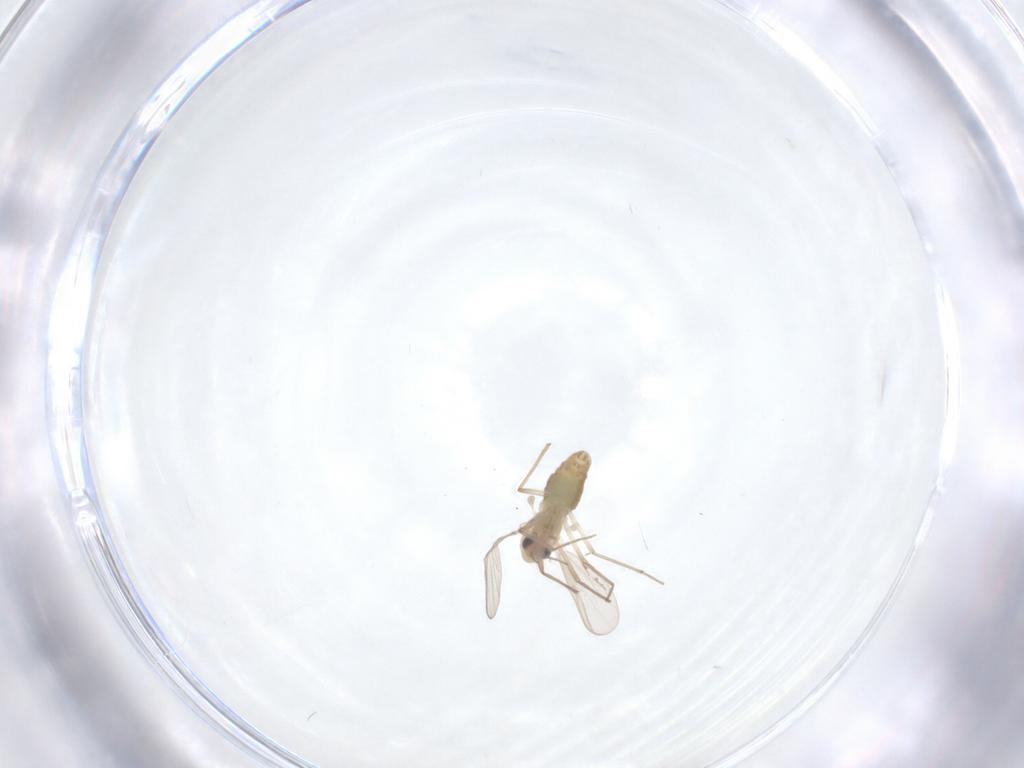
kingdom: Animalia
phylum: Arthropoda
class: Insecta
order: Diptera
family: Chironomidae
